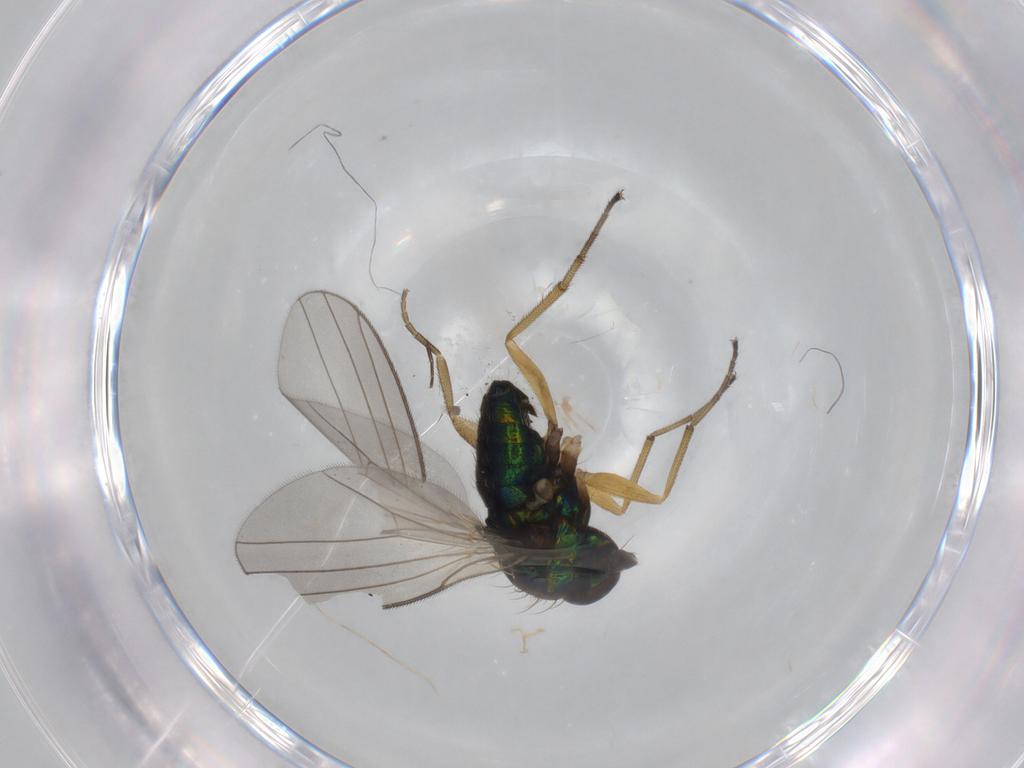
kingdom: Animalia
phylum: Arthropoda
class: Insecta
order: Diptera
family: Dolichopodidae
